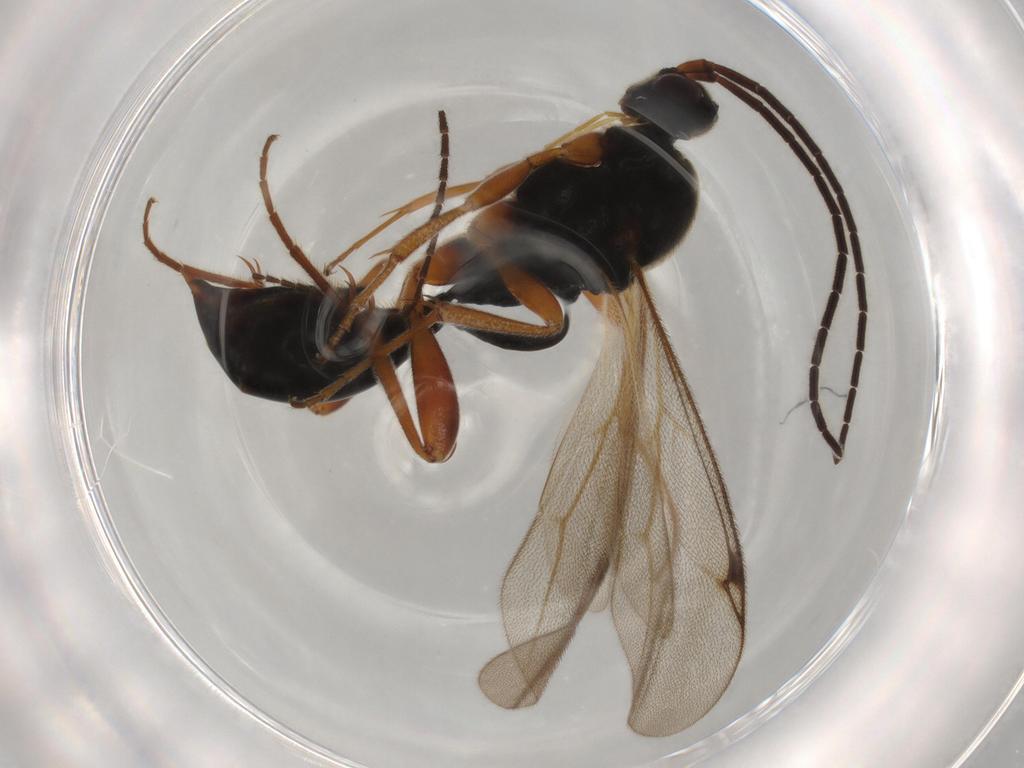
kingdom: Animalia
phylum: Arthropoda
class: Insecta
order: Hymenoptera
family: Proctotrupidae
